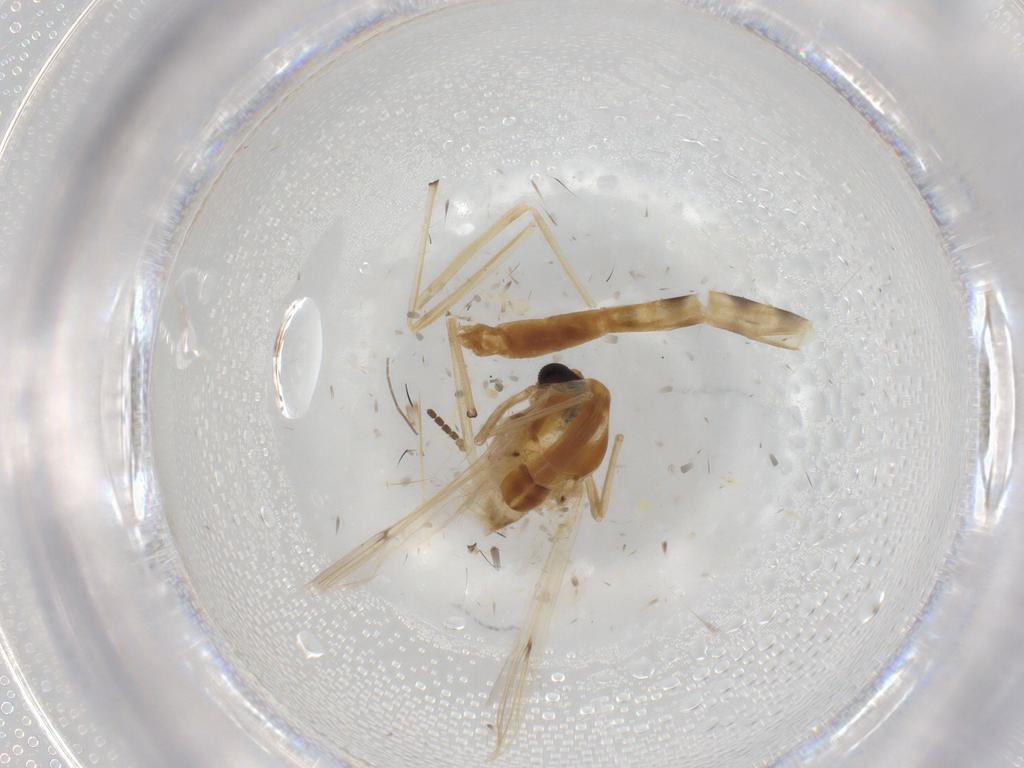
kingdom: Animalia
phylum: Arthropoda
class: Insecta
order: Diptera
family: Sciaridae
